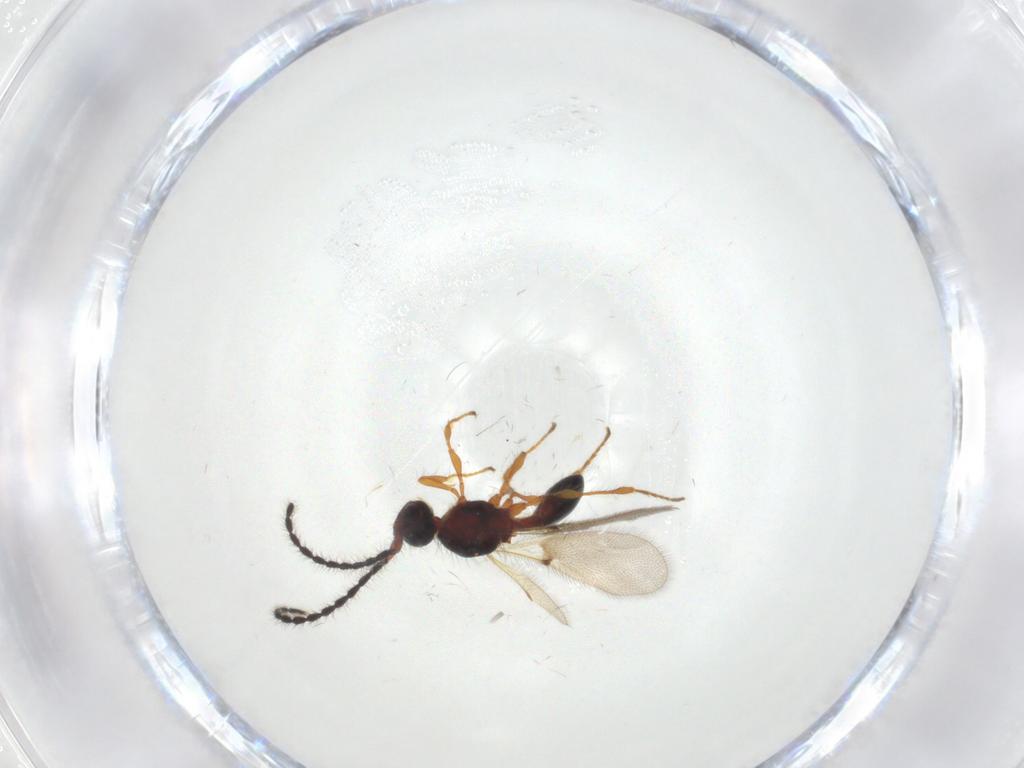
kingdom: Animalia
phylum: Arthropoda
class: Insecta
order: Hymenoptera
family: Diapriidae
